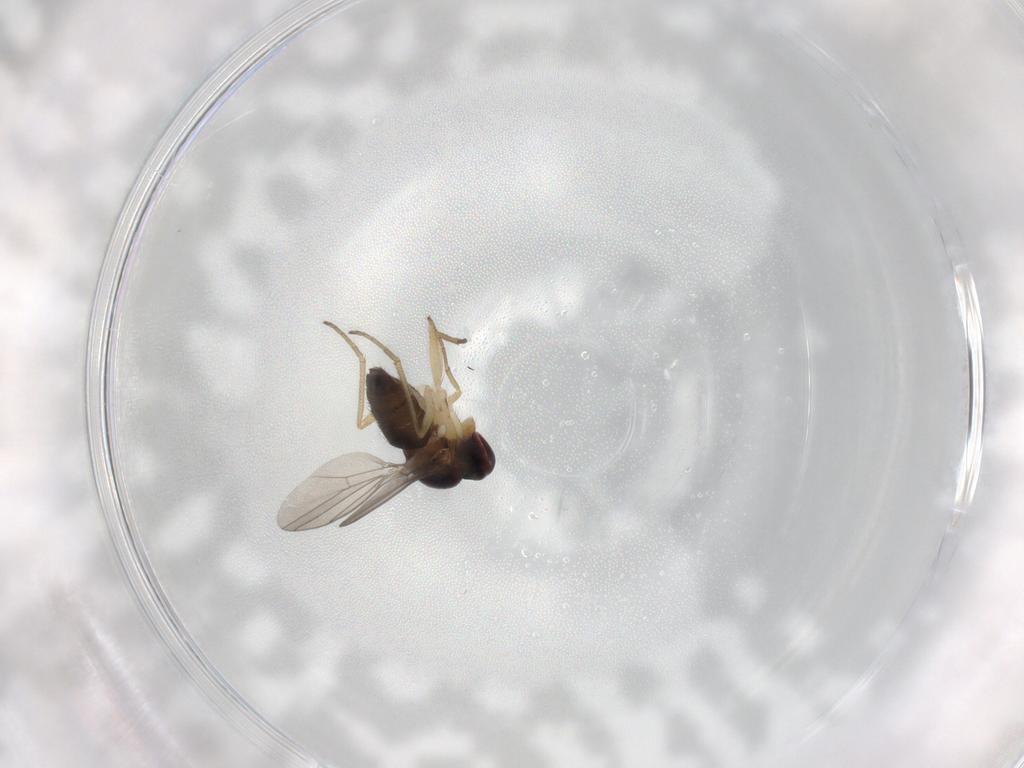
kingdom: Animalia
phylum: Arthropoda
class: Insecta
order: Diptera
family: Dolichopodidae
